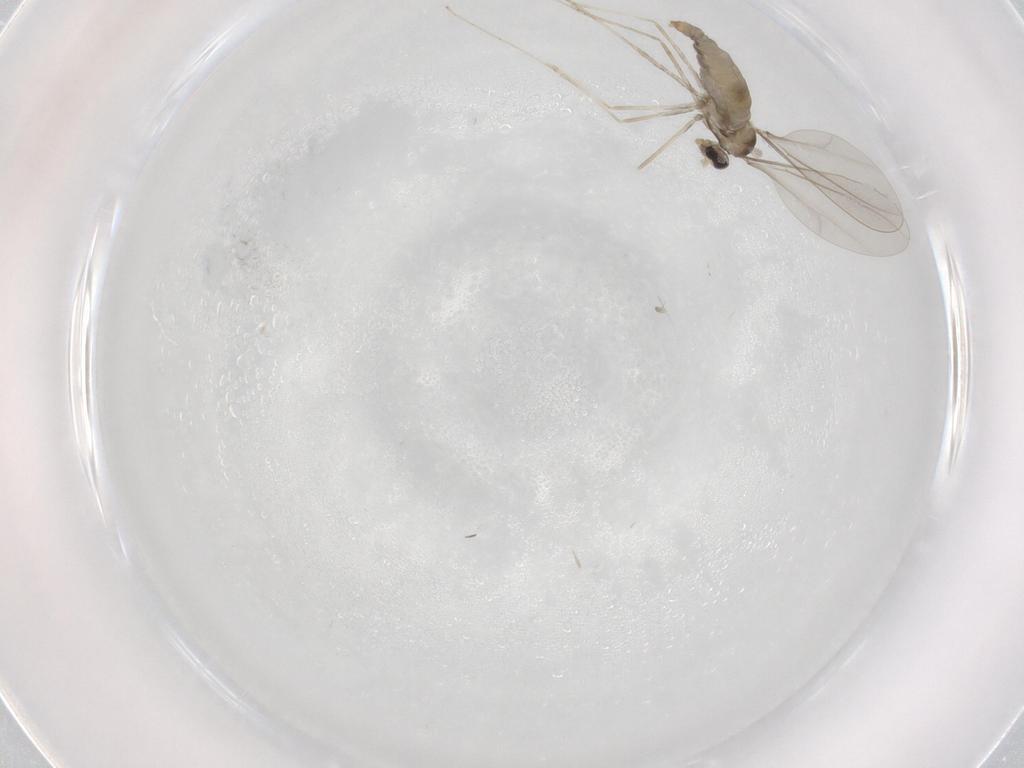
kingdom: Animalia
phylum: Arthropoda
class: Insecta
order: Diptera
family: Cecidomyiidae
